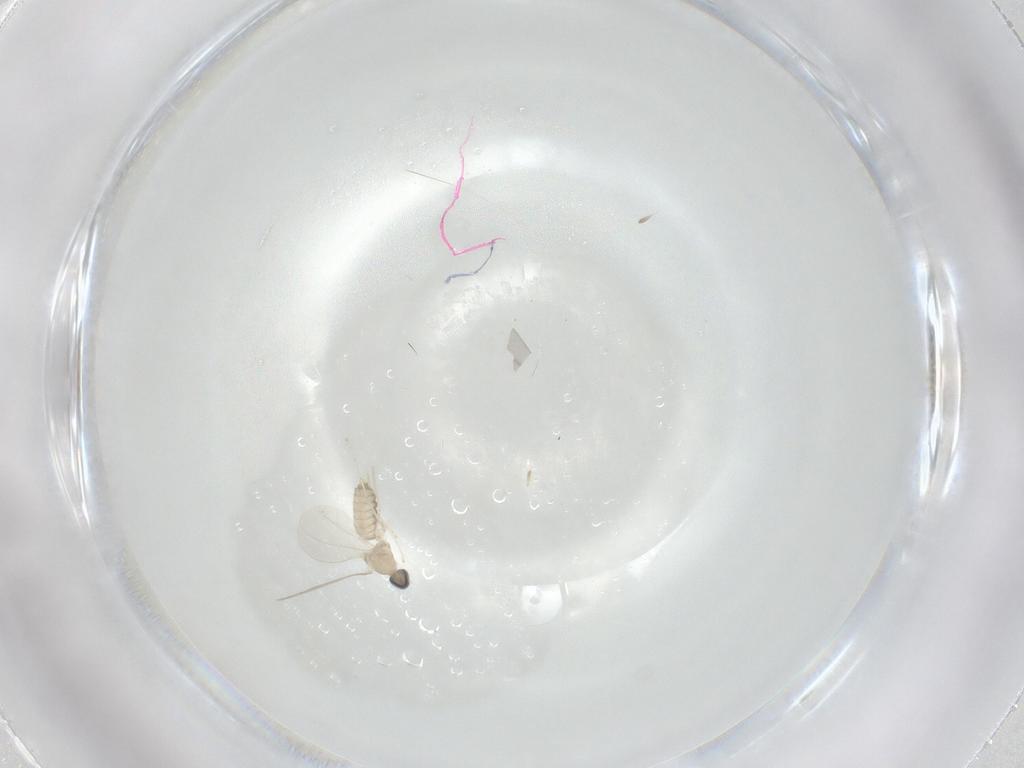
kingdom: Animalia
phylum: Arthropoda
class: Insecta
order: Diptera
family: Cecidomyiidae
